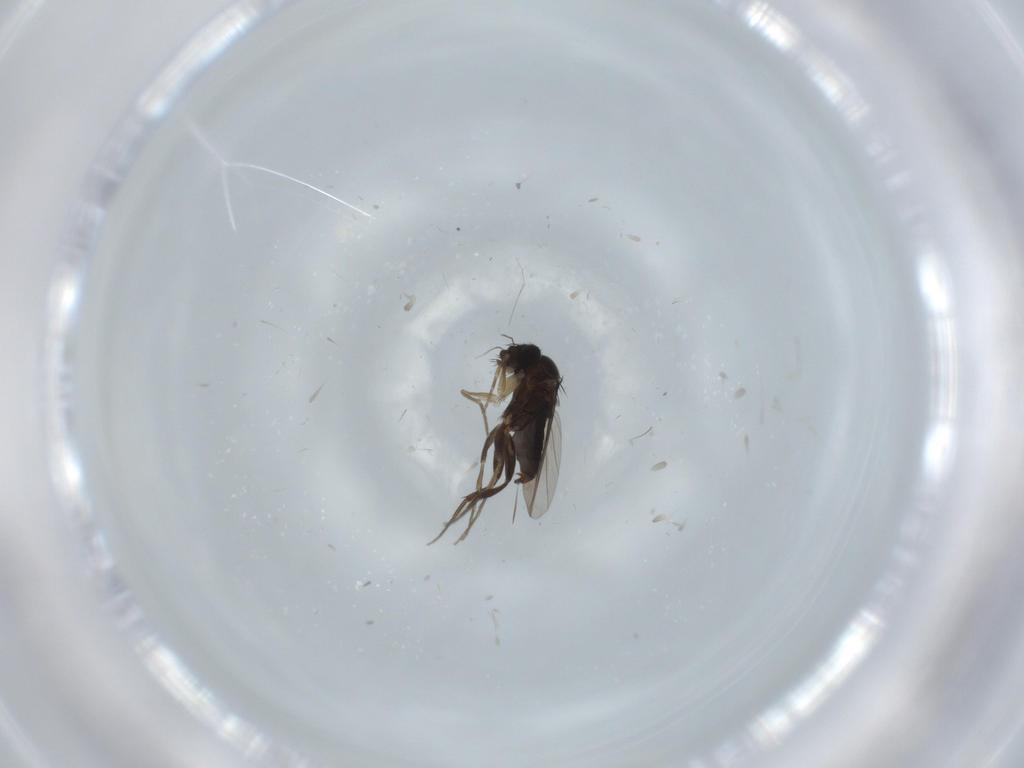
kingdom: Animalia
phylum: Arthropoda
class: Insecta
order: Diptera
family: Phoridae
